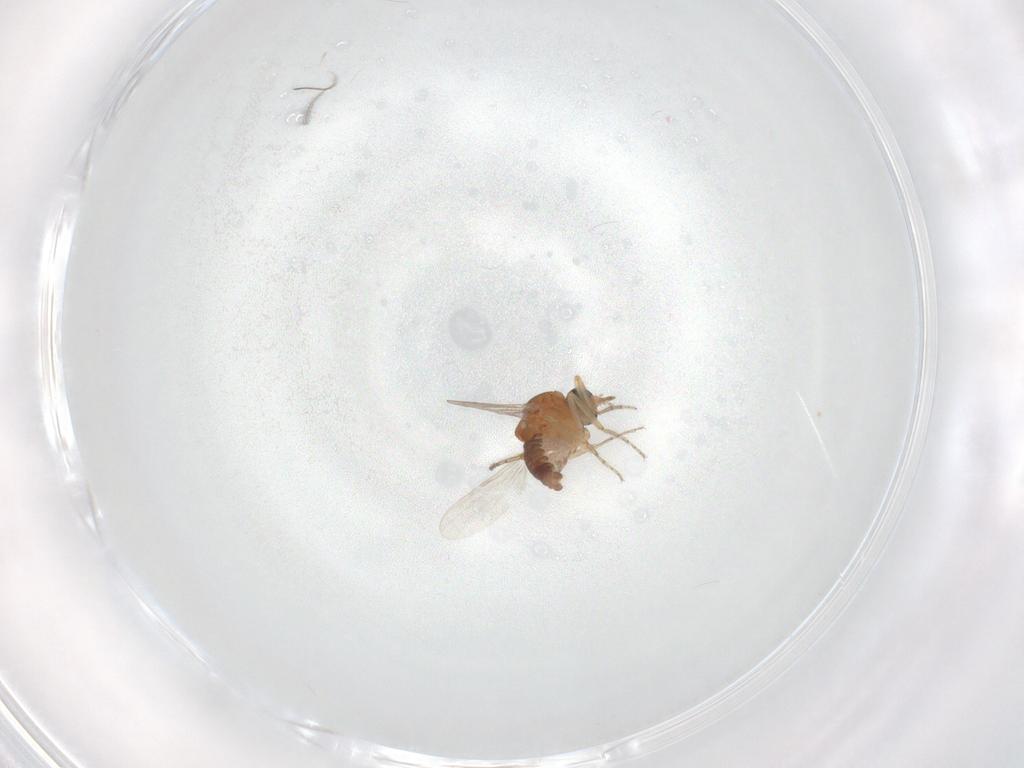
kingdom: Animalia
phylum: Arthropoda
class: Insecta
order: Diptera
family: Ceratopogonidae
